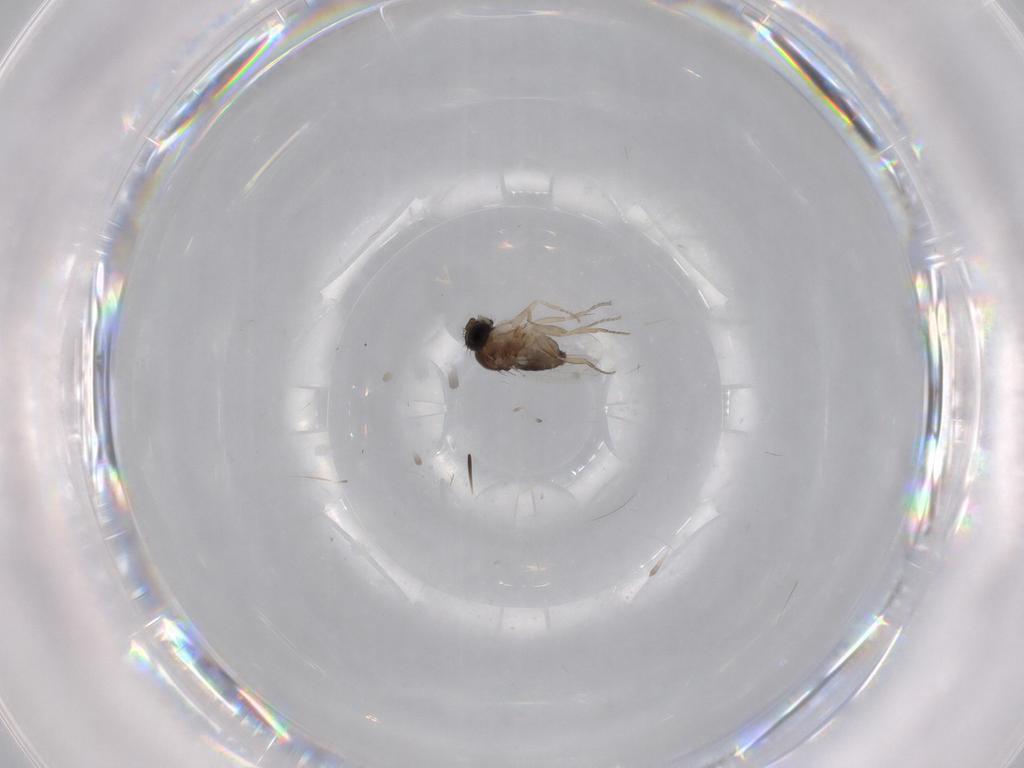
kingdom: Animalia
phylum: Arthropoda
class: Insecta
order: Diptera
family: Phoridae
